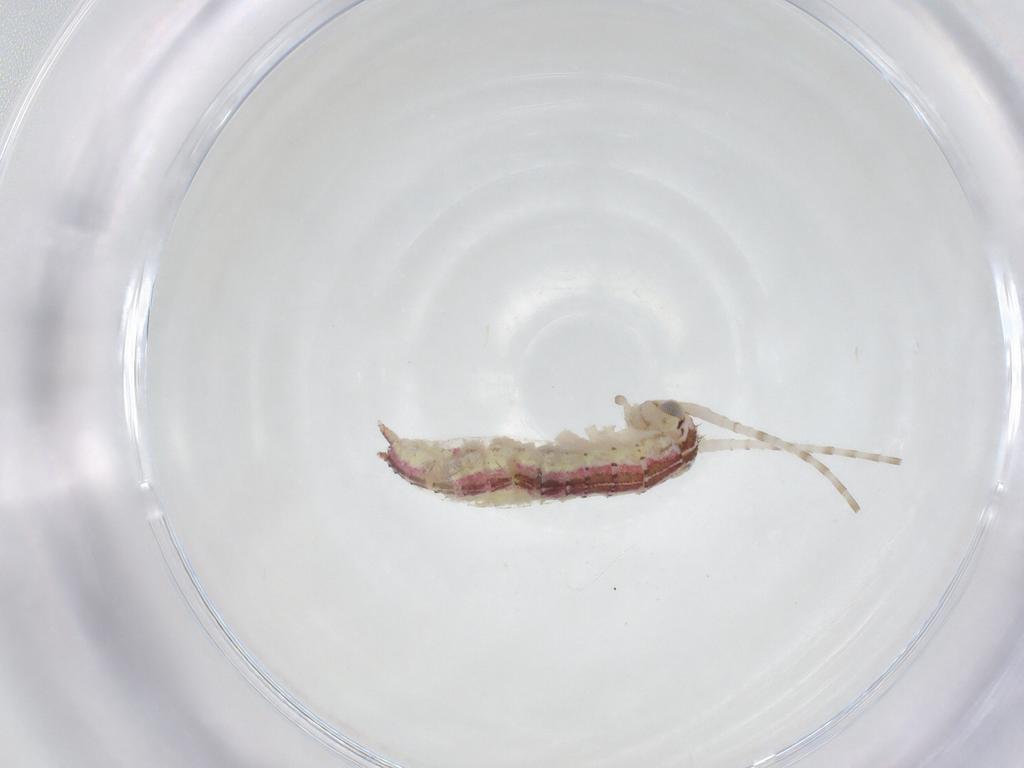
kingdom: Animalia
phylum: Arthropoda
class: Insecta
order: Orthoptera
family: Oecanthidae
